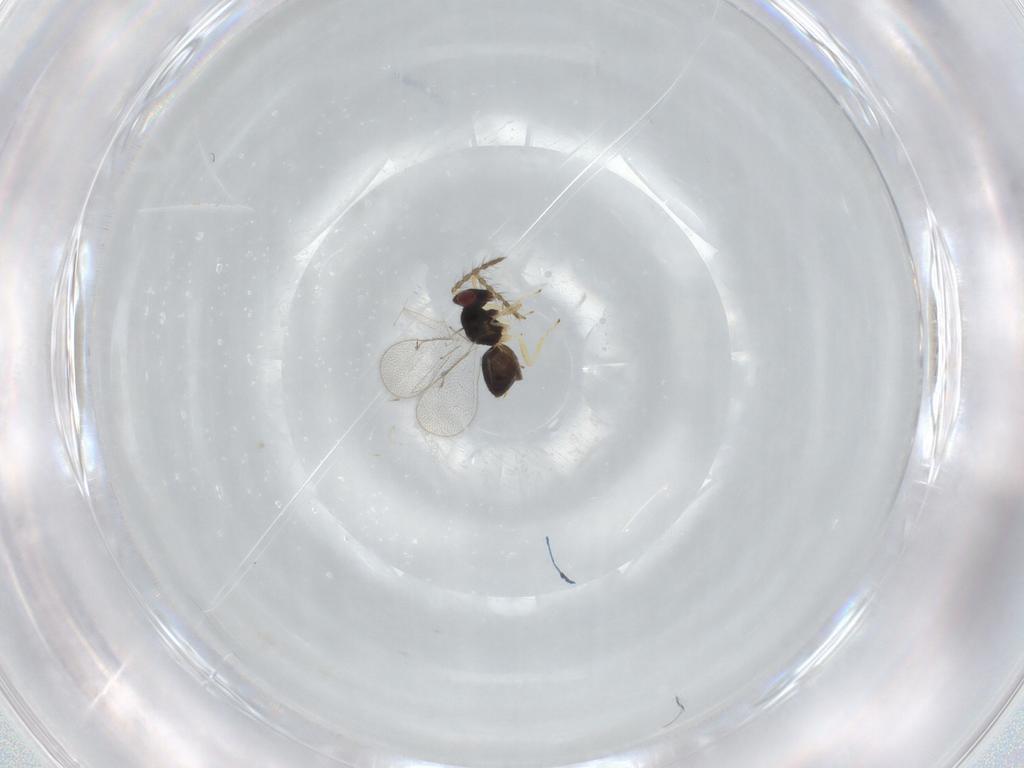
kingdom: Animalia
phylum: Arthropoda
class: Insecta
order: Hymenoptera
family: Eulophidae
